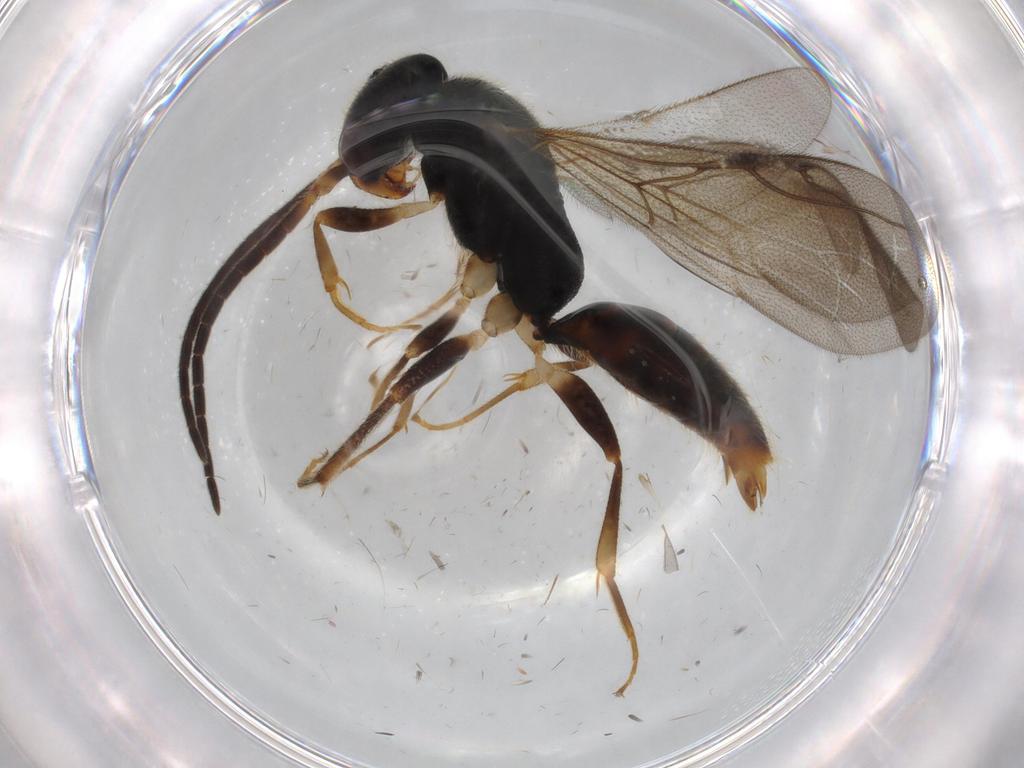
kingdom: Animalia
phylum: Arthropoda
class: Insecta
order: Hymenoptera
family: Bethylidae
